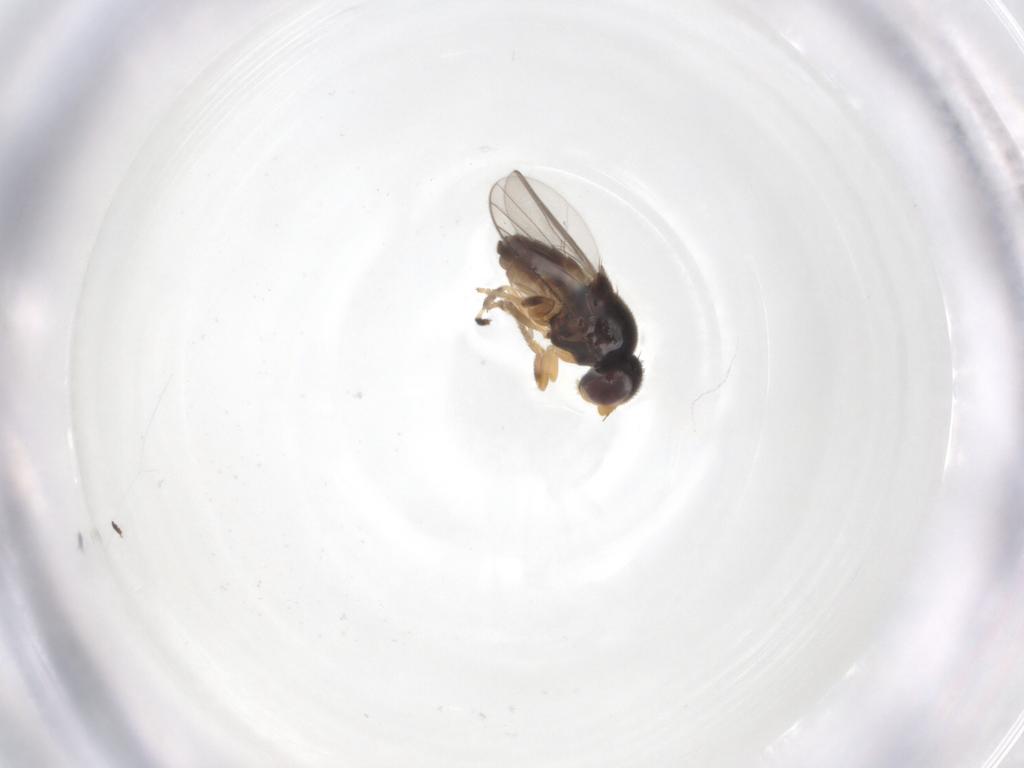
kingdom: Animalia
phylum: Arthropoda
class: Insecta
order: Diptera
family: Chloropidae
